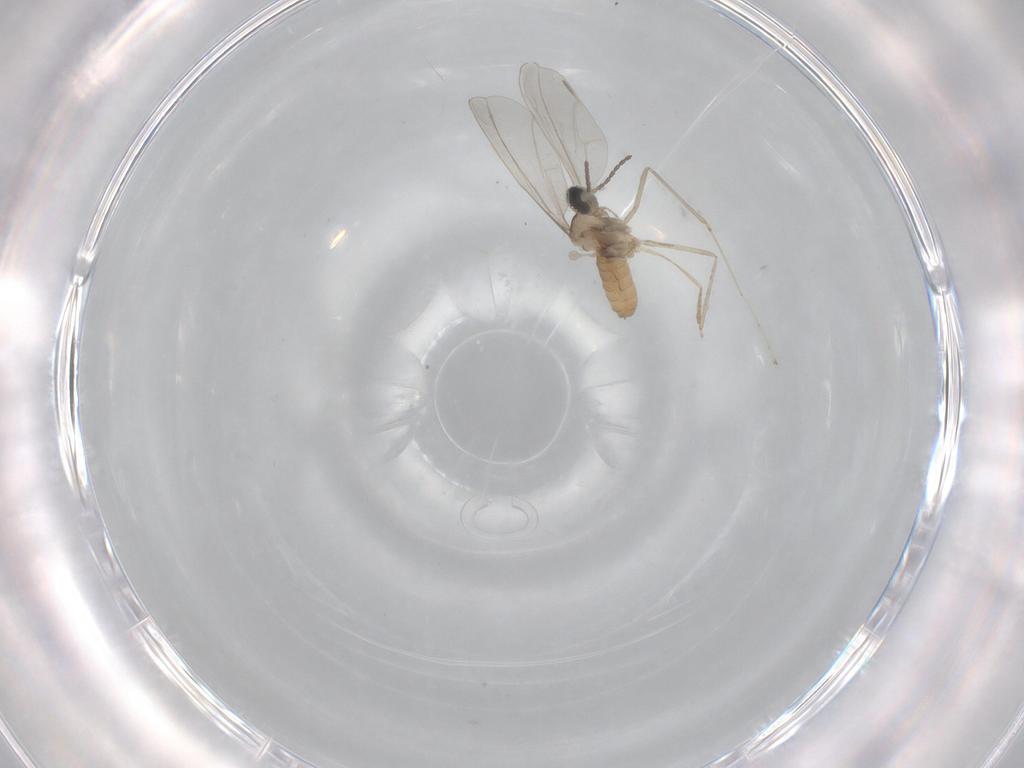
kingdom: Animalia
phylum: Arthropoda
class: Insecta
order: Diptera
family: Cecidomyiidae
